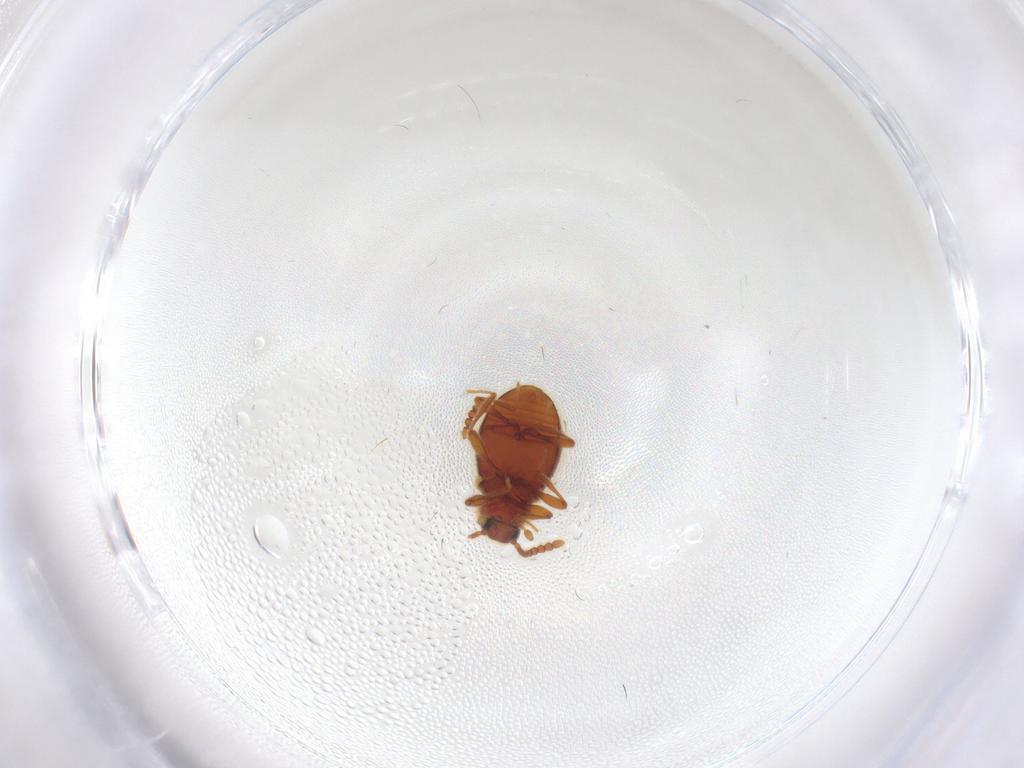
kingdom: Animalia
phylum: Arthropoda
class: Insecta
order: Coleoptera
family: Staphylinidae
